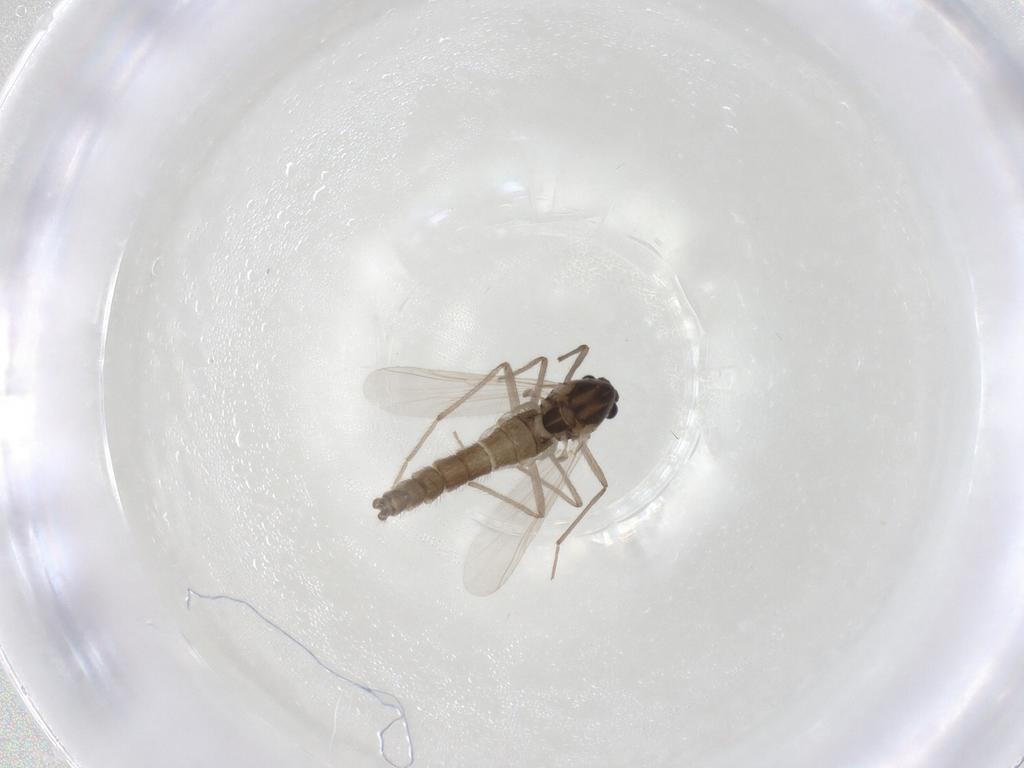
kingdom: Animalia
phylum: Arthropoda
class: Insecta
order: Diptera
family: Chironomidae
